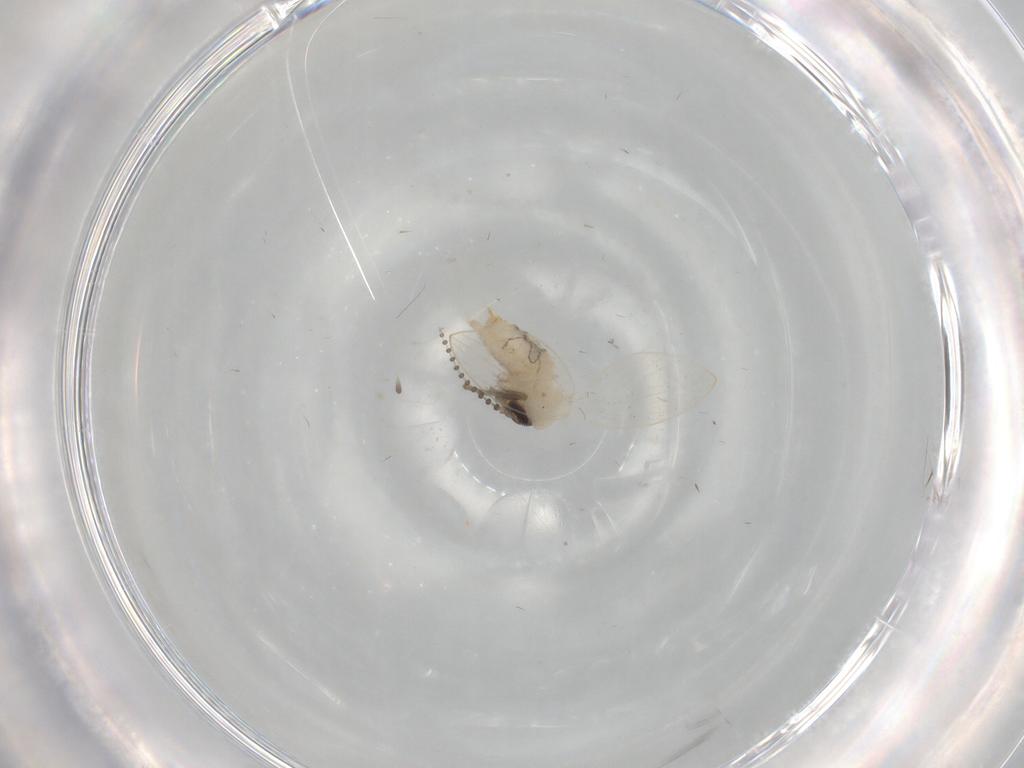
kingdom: Animalia
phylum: Arthropoda
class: Insecta
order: Diptera
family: Psychodidae
